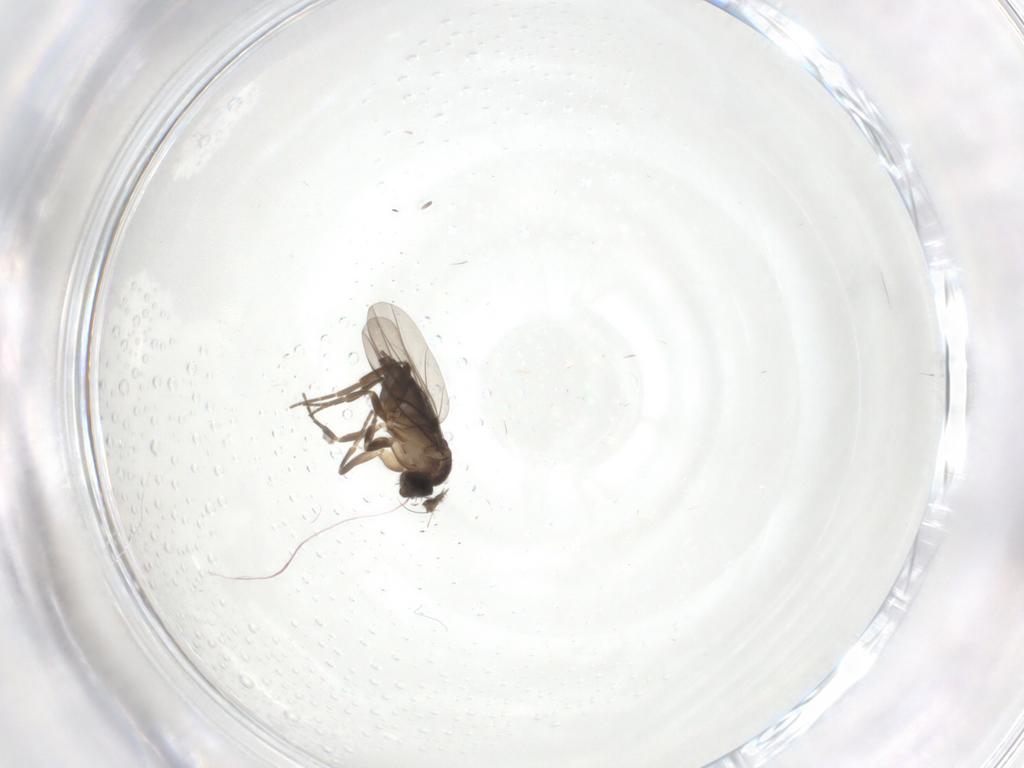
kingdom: Animalia
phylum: Arthropoda
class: Insecta
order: Diptera
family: Phoridae
